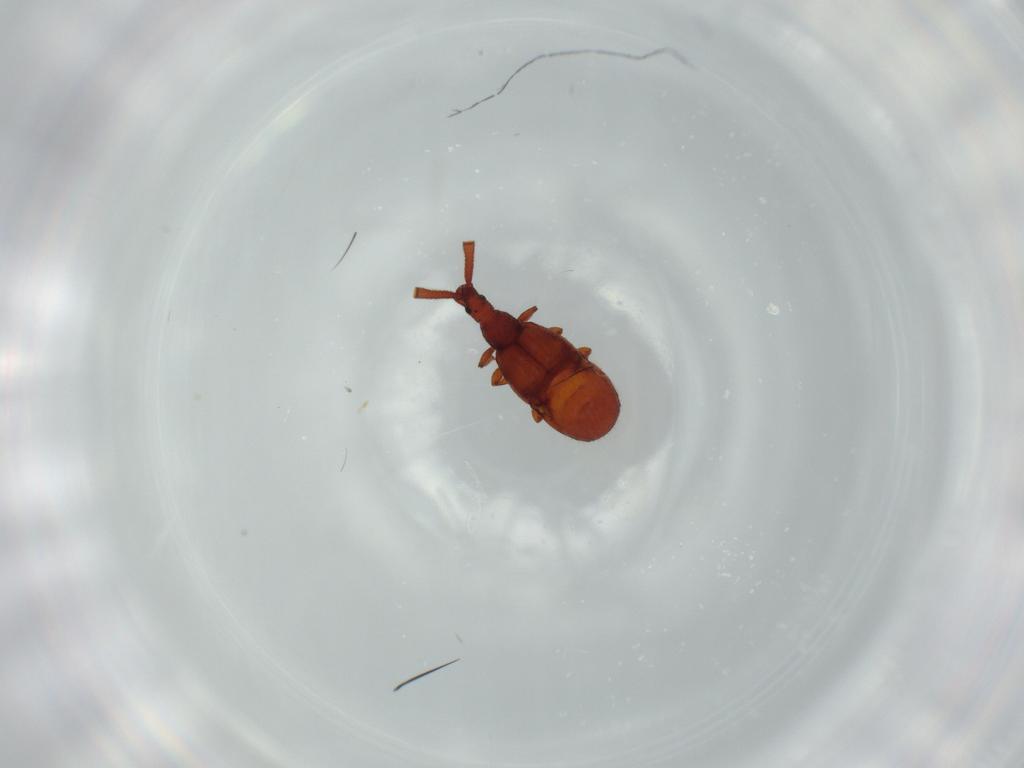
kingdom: Animalia
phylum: Arthropoda
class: Insecta
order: Coleoptera
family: Staphylinidae
